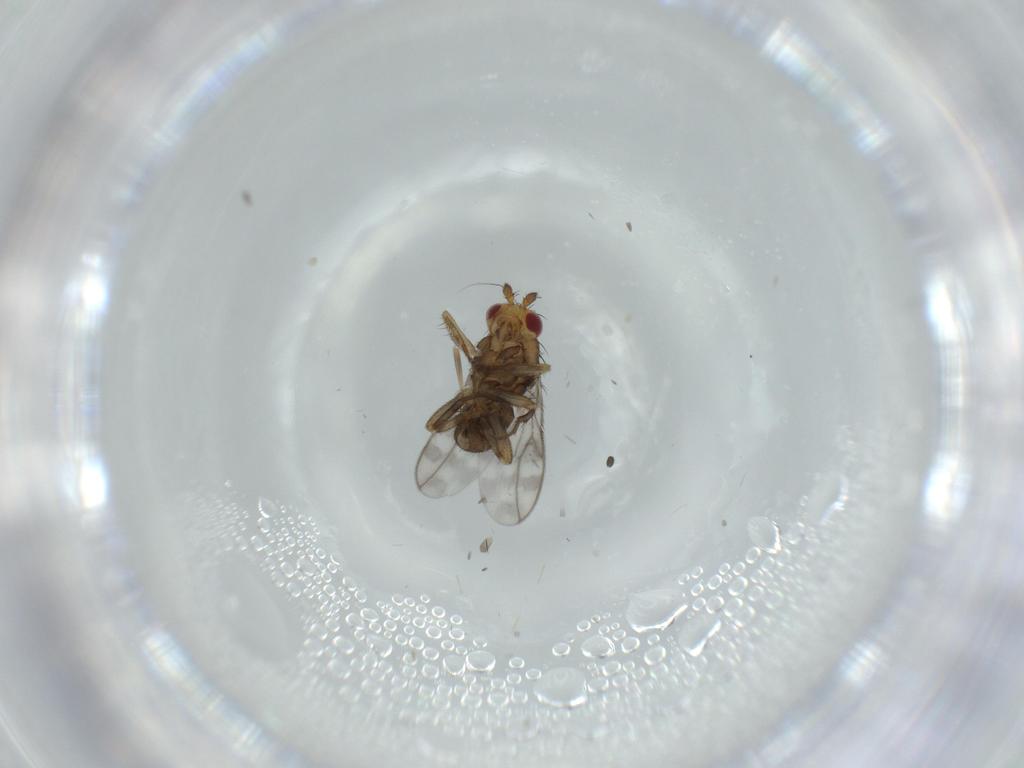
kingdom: Animalia
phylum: Arthropoda
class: Insecta
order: Diptera
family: Sphaeroceridae
